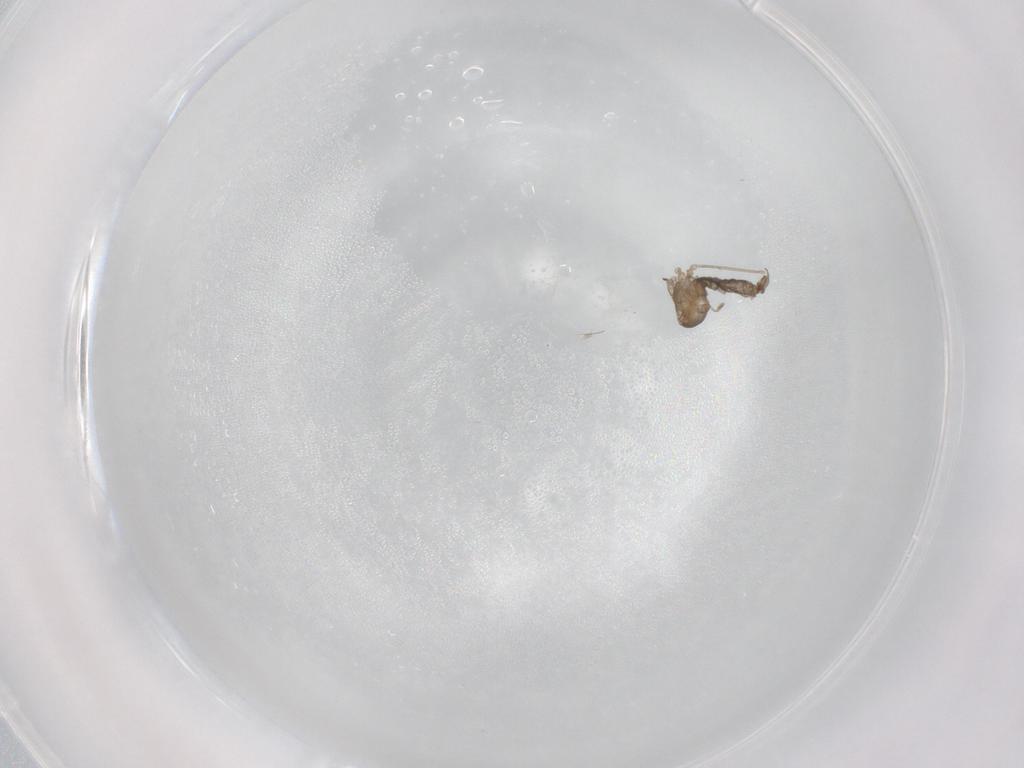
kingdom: Animalia
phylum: Arthropoda
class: Insecta
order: Diptera
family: Cecidomyiidae
